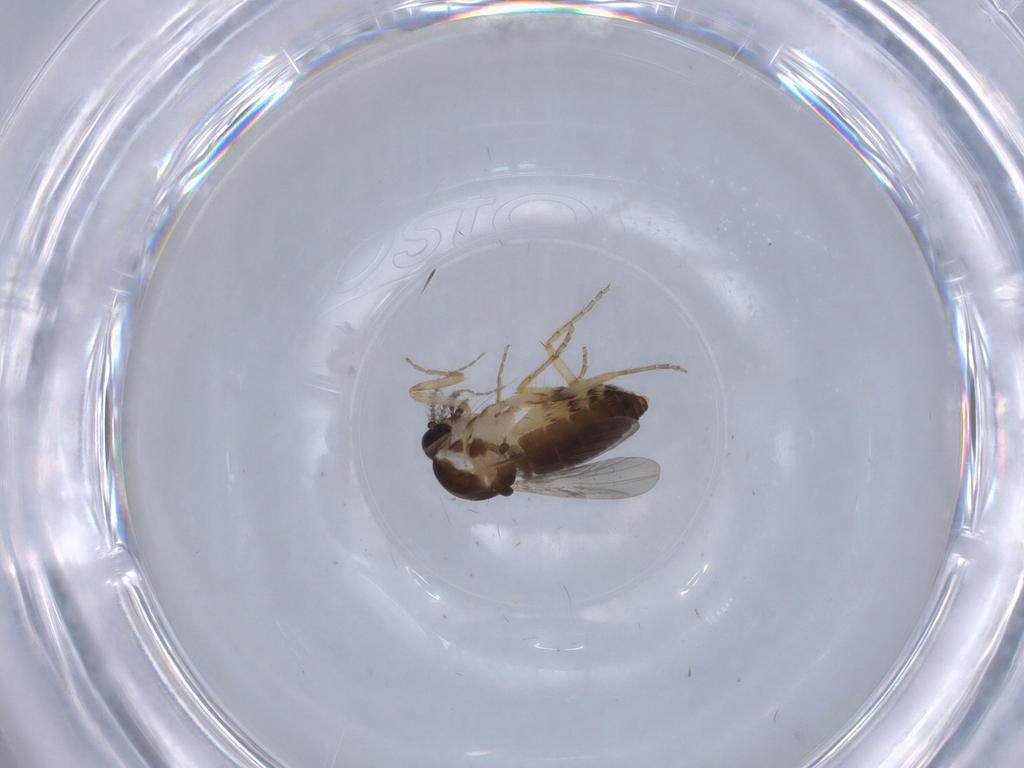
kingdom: Animalia
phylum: Arthropoda
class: Insecta
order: Diptera
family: Ceratopogonidae
